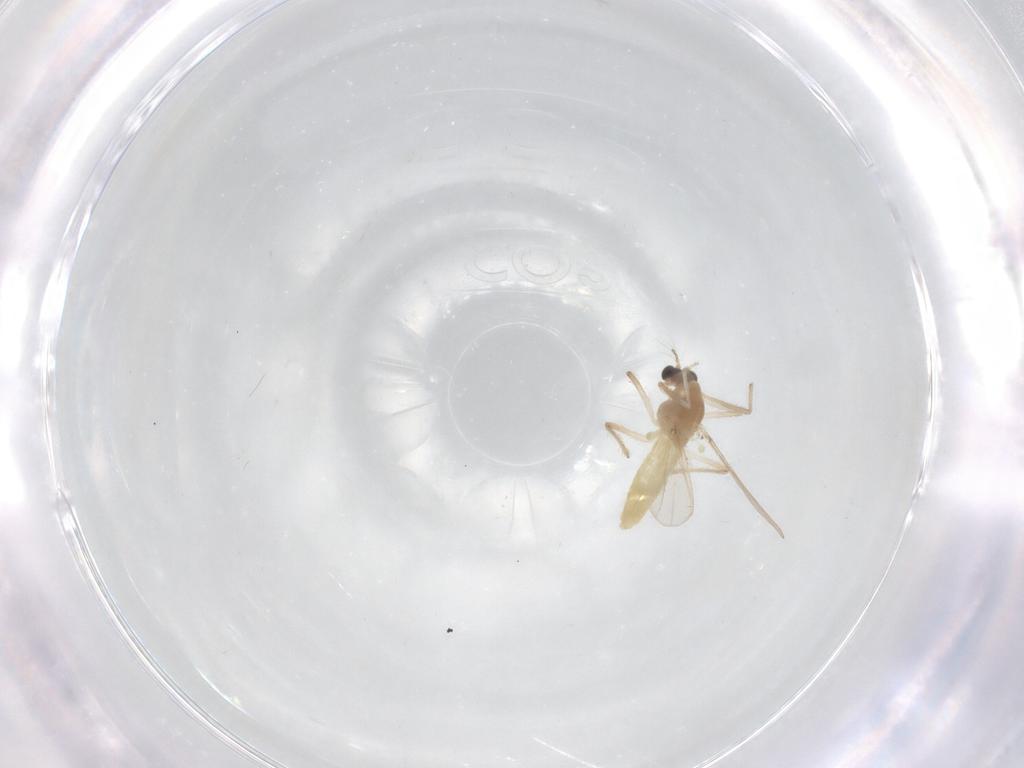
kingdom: Animalia
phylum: Arthropoda
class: Insecta
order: Diptera
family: Chironomidae
